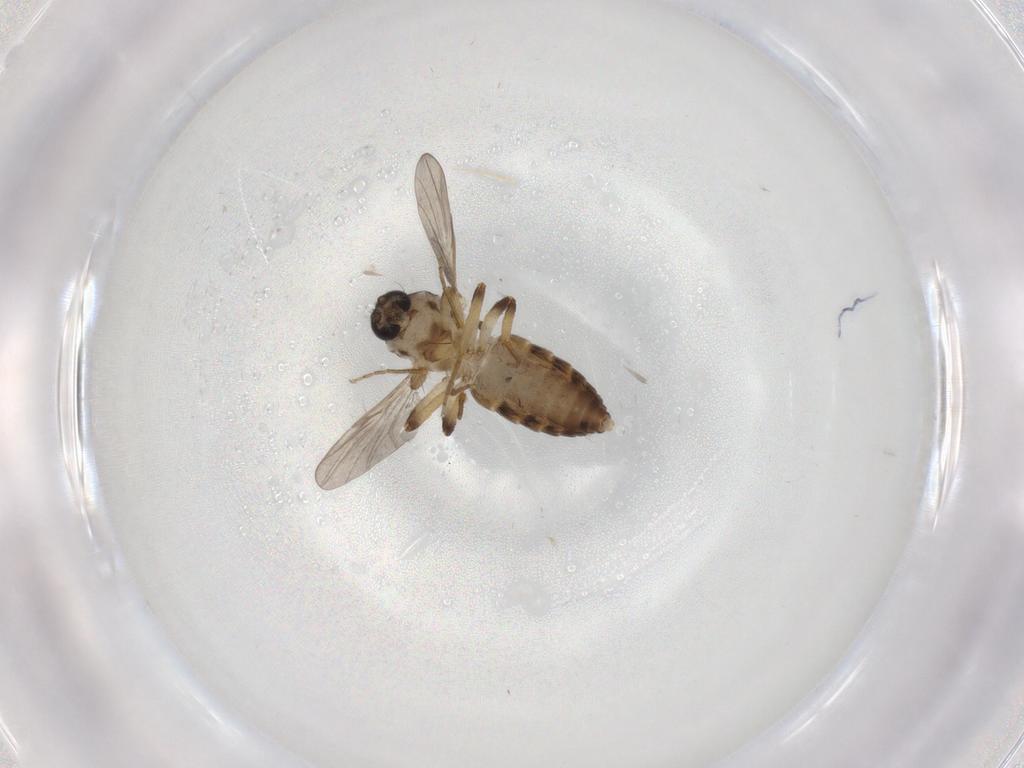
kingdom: Animalia
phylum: Arthropoda
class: Insecta
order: Diptera
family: Ceratopogonidae
